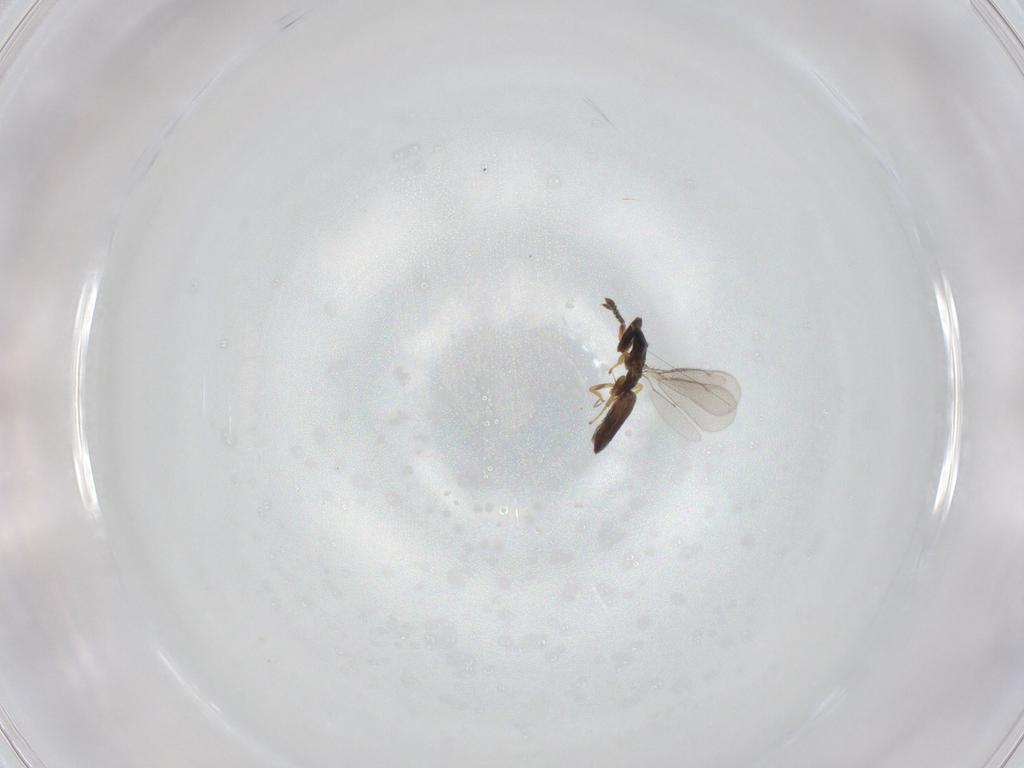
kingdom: Animalia
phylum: Arthropoda
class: Insecta
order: Hymenoptera
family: Eulophidae
